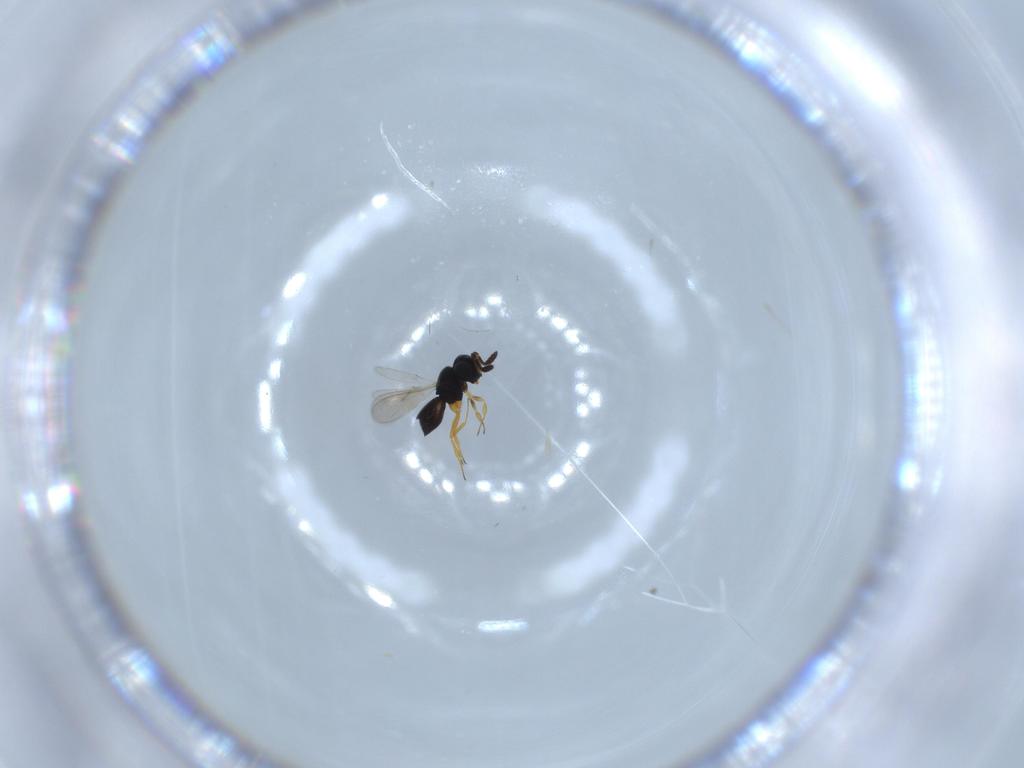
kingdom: Animalia
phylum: Arthropoda
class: Insecta
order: Hymenoptera
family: Scelionidae
